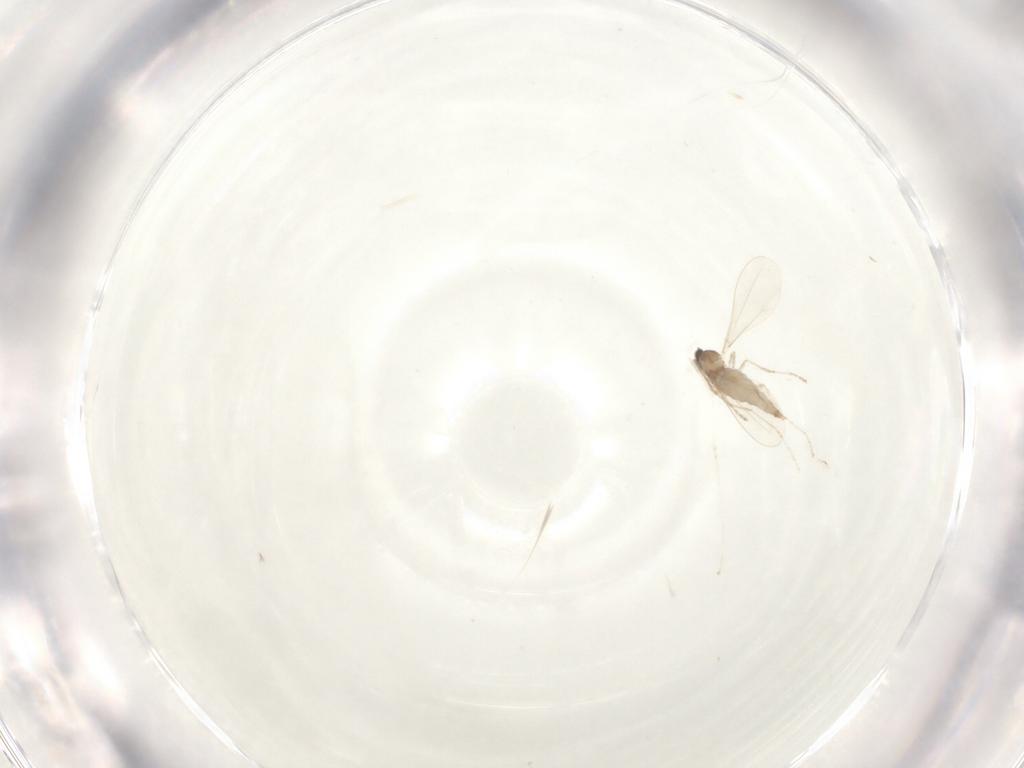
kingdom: Animalia
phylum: Arthropoda
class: Insecta
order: Diptera
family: Cecidomyiidae
